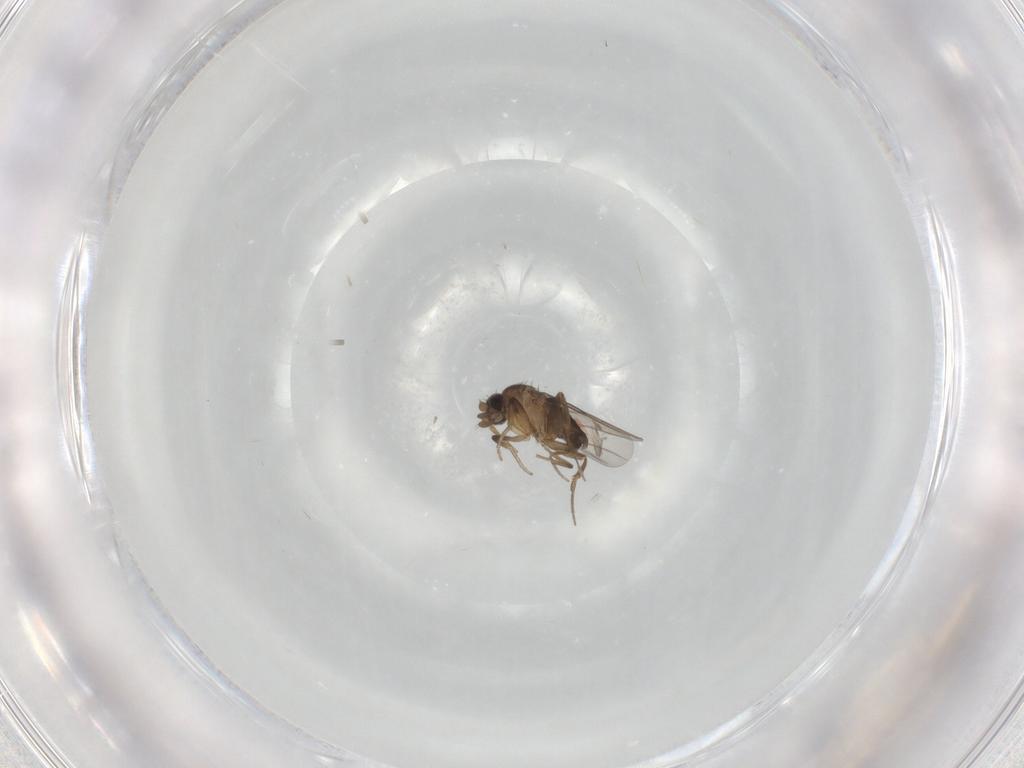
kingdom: Animalia
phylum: Arthropoda
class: Insecta
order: Diptera
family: Phoridae
